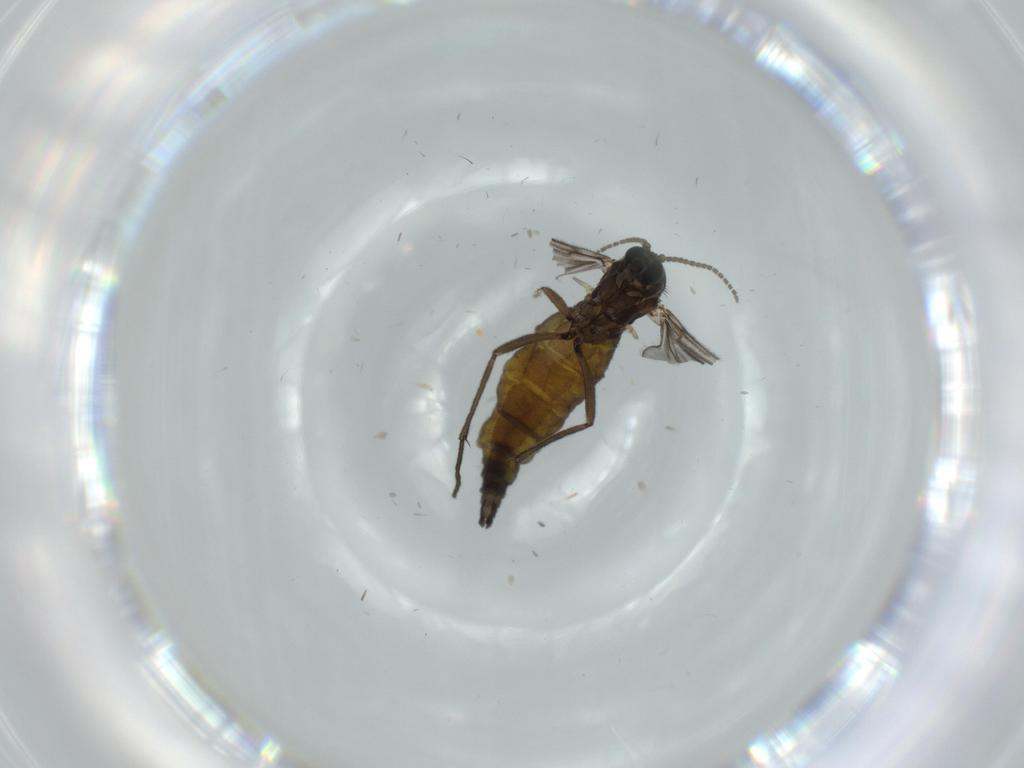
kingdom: Animalia
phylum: Arthropoda
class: Insecta
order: Diptera
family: Sciaridae
